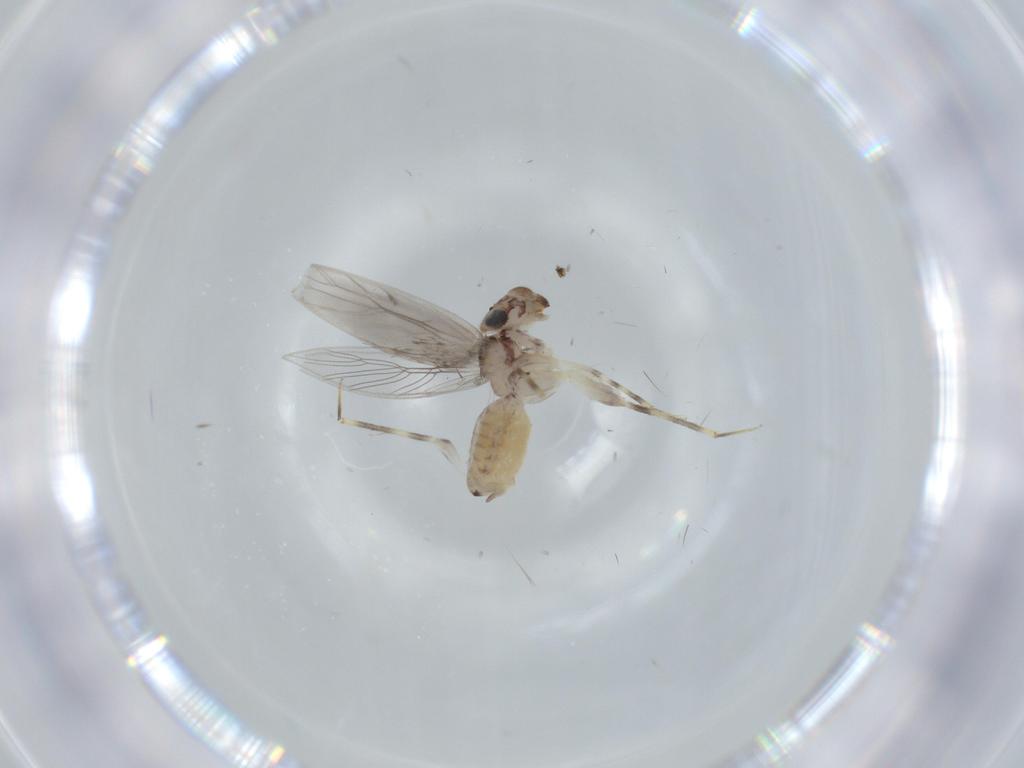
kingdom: Animalia
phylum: Arthropoda
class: Insecta
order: Psocodea
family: Lepidopsocidae
